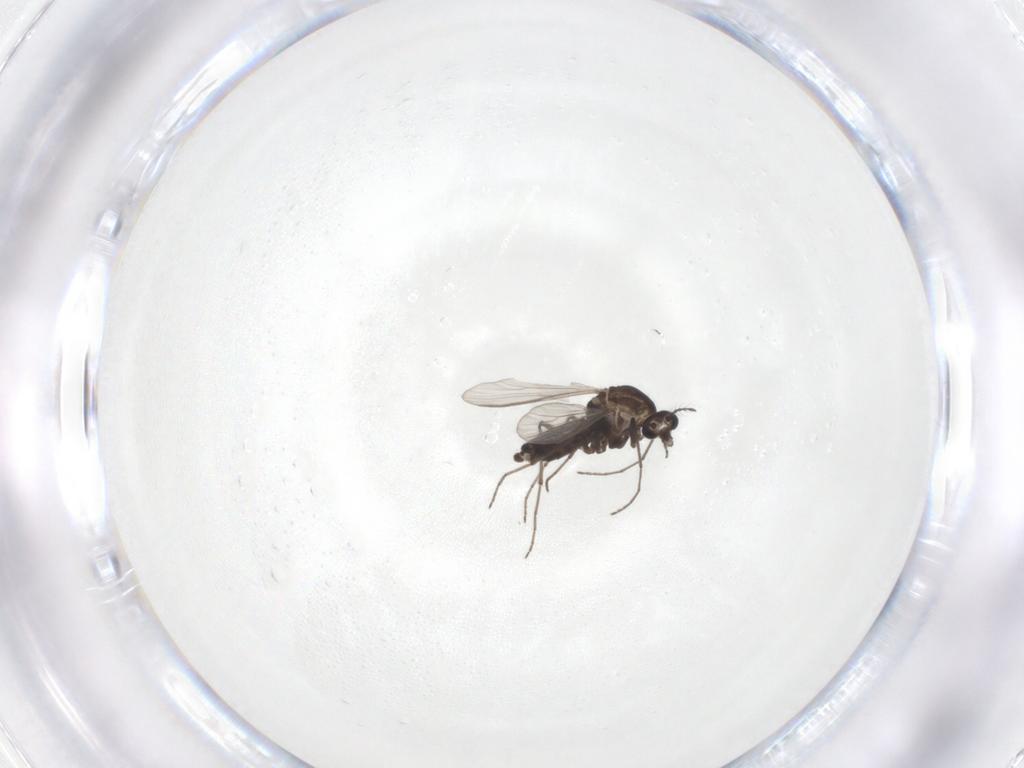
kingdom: Animalia
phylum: Arthropoda
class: Insecta
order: Diptera
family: Chironomidae
